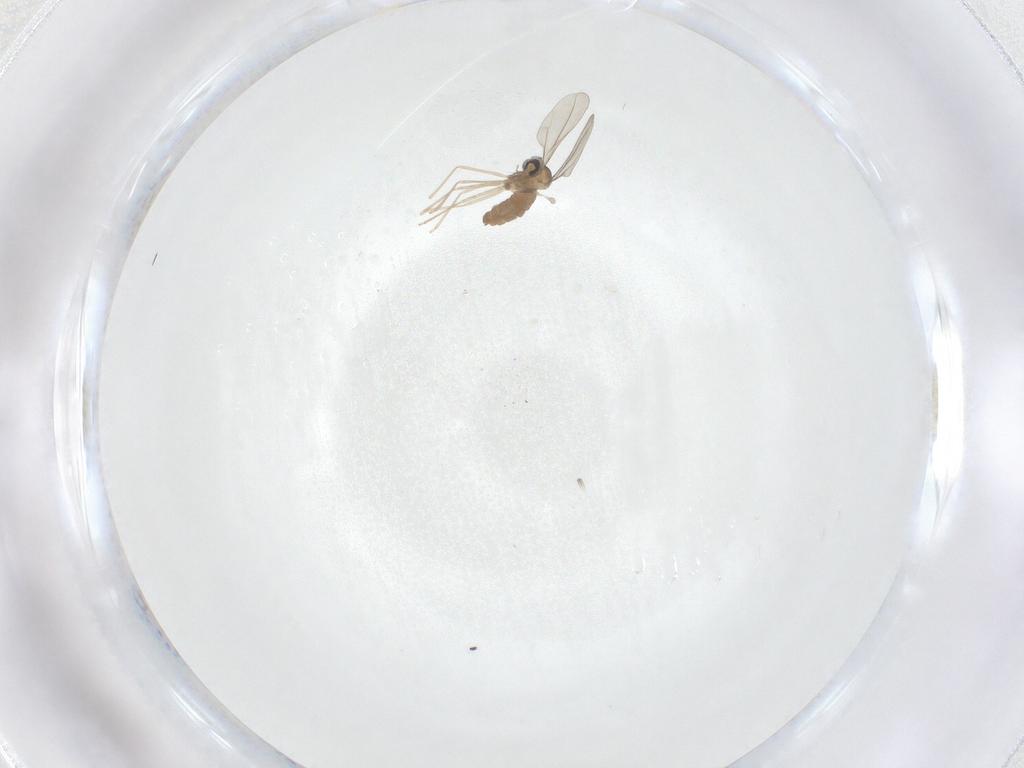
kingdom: Animalia
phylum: Arthropoda
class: Insecta
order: Diptera
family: Cecidomyiidae
